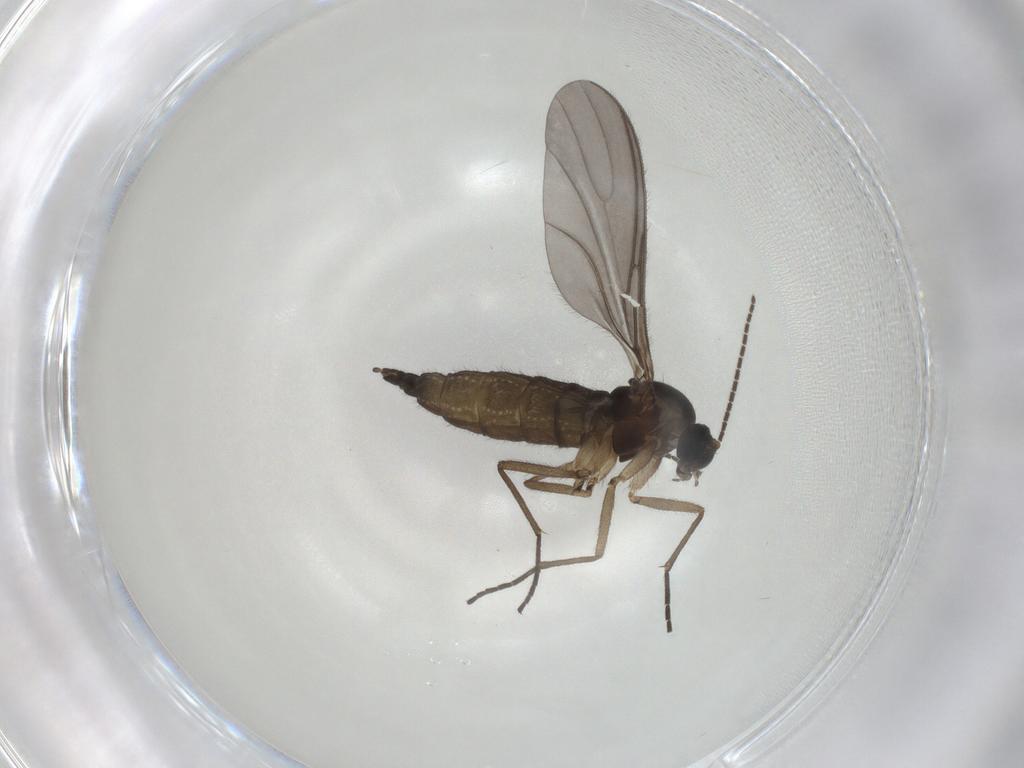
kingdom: Animalia
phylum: Arthropoda
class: Insecta
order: Diptera
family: Sciaridae
